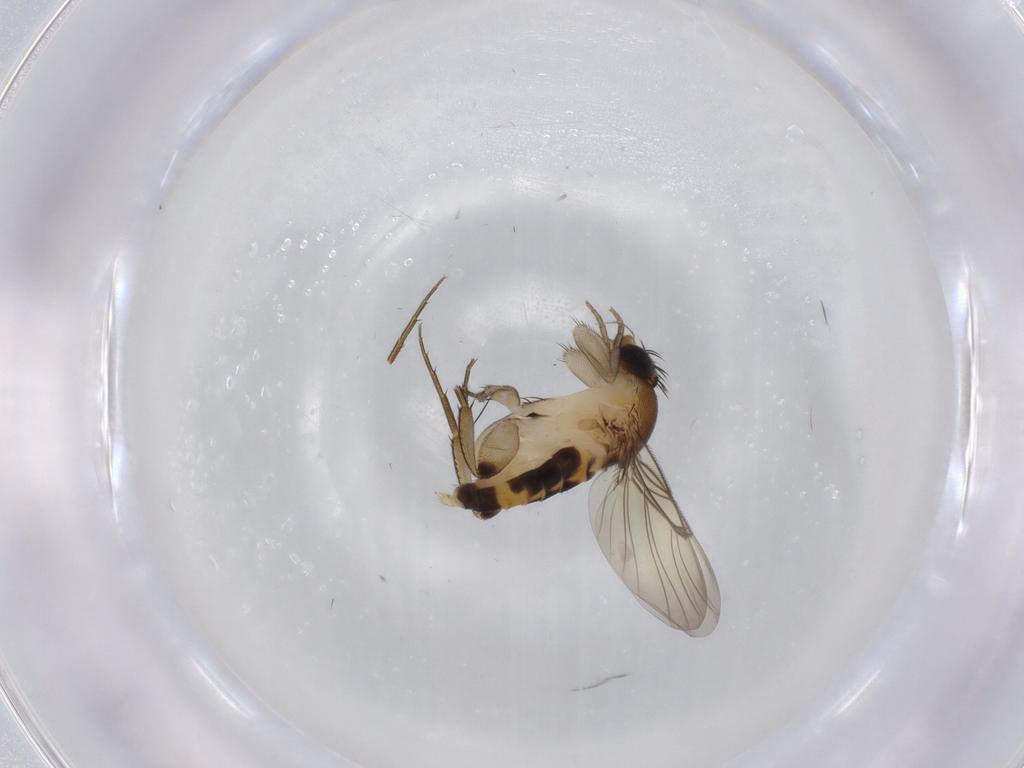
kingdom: Animalia
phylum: Arthropoda
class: Insecta
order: Diptera
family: Phoridae
